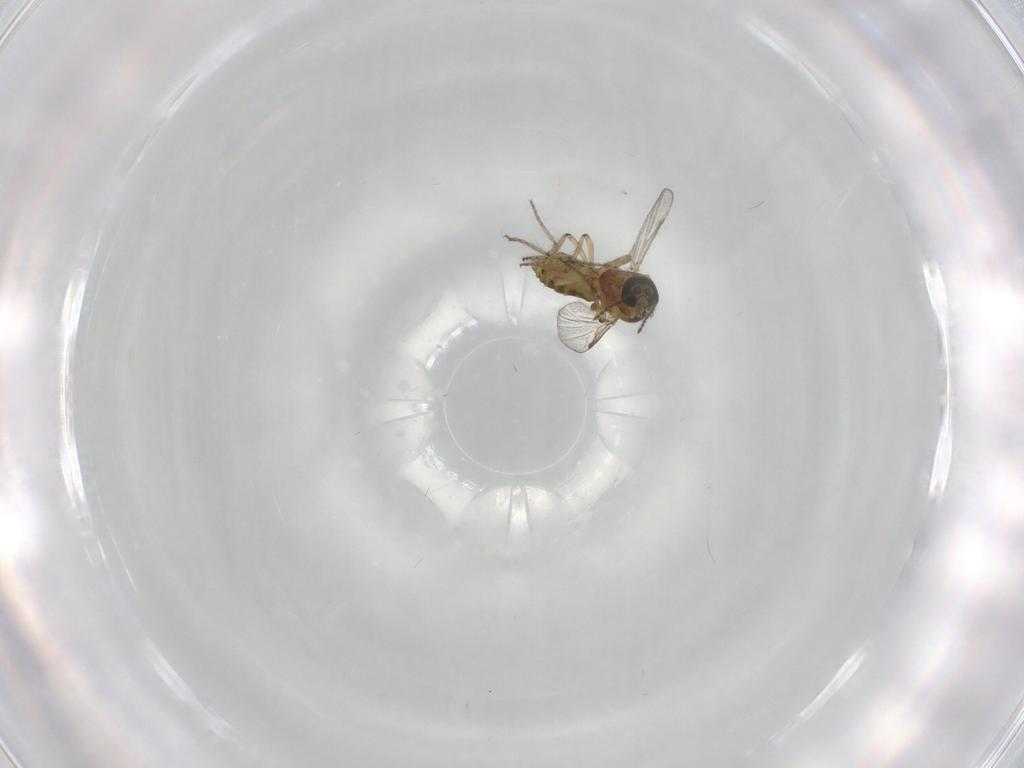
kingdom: Animalia
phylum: Arthropoda
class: Insecta
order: Diptera
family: Ceratopogonidae
